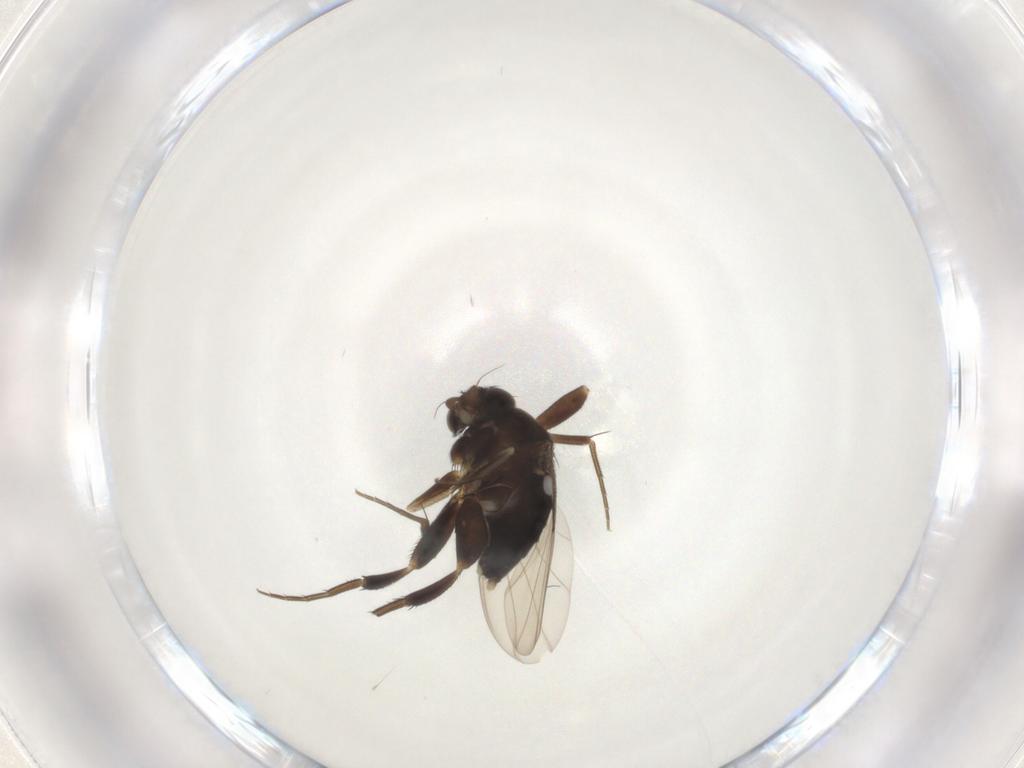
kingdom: Animalia
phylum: Arthropoda
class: Insecta
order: Diptera
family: Phoridae
